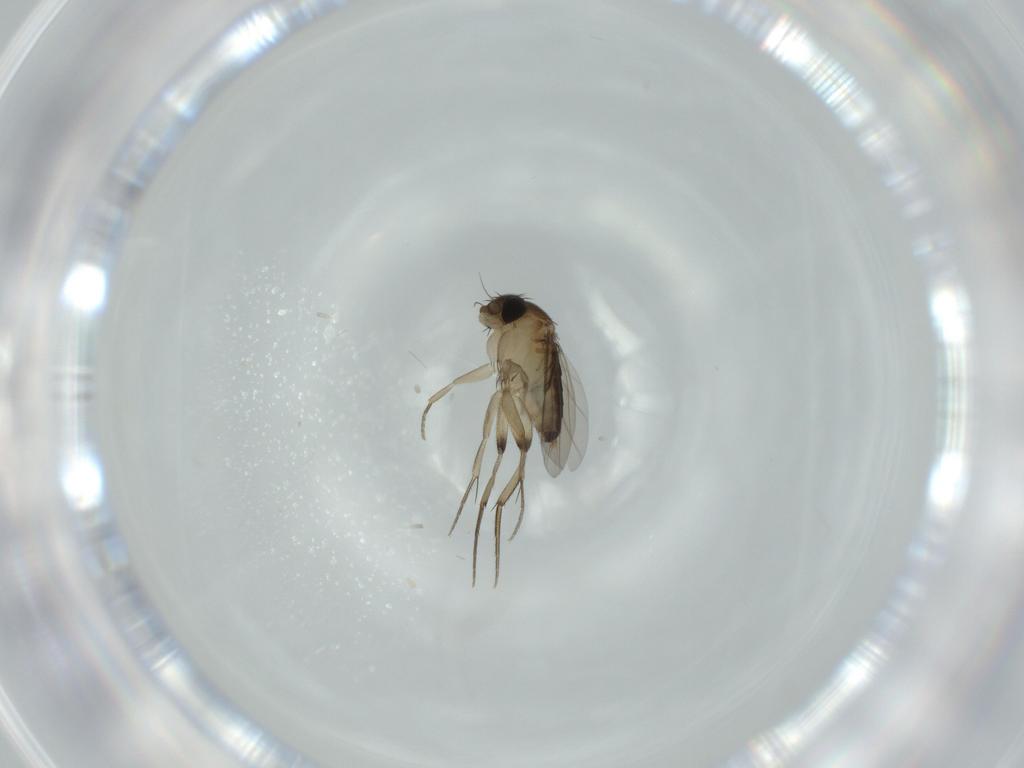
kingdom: Animalia
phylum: Arthropoda
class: Insecta
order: Diptera
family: Phoridae
